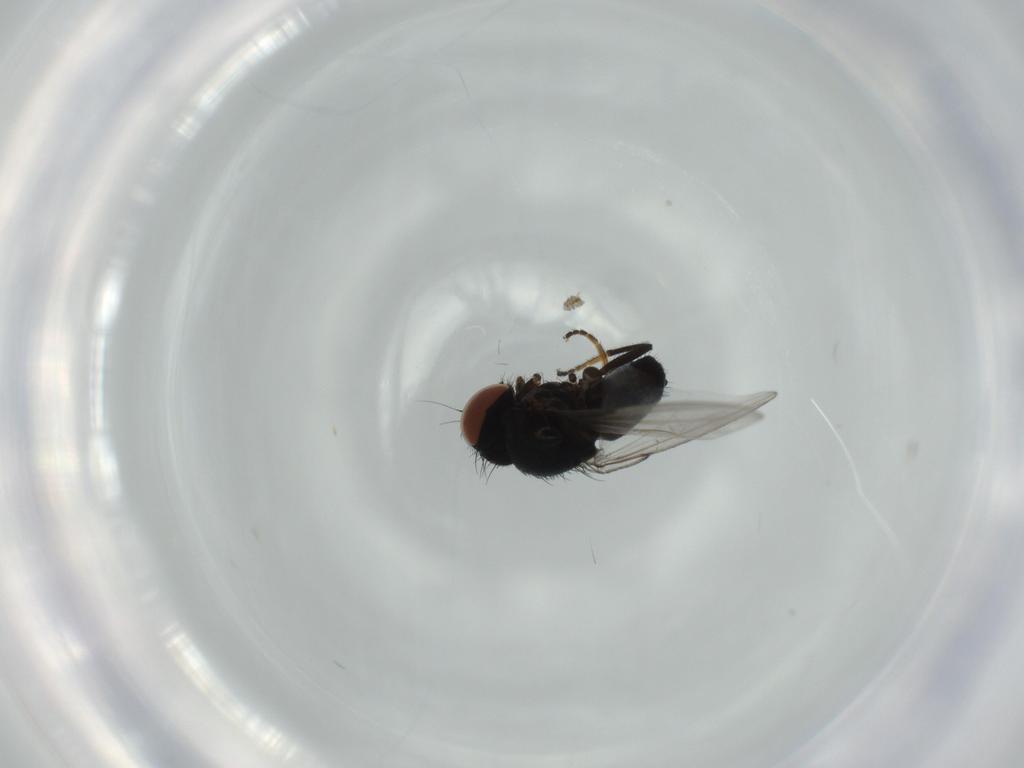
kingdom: Animalia
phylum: Arthropoda
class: Insecta
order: Diptera
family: Milichiidae
